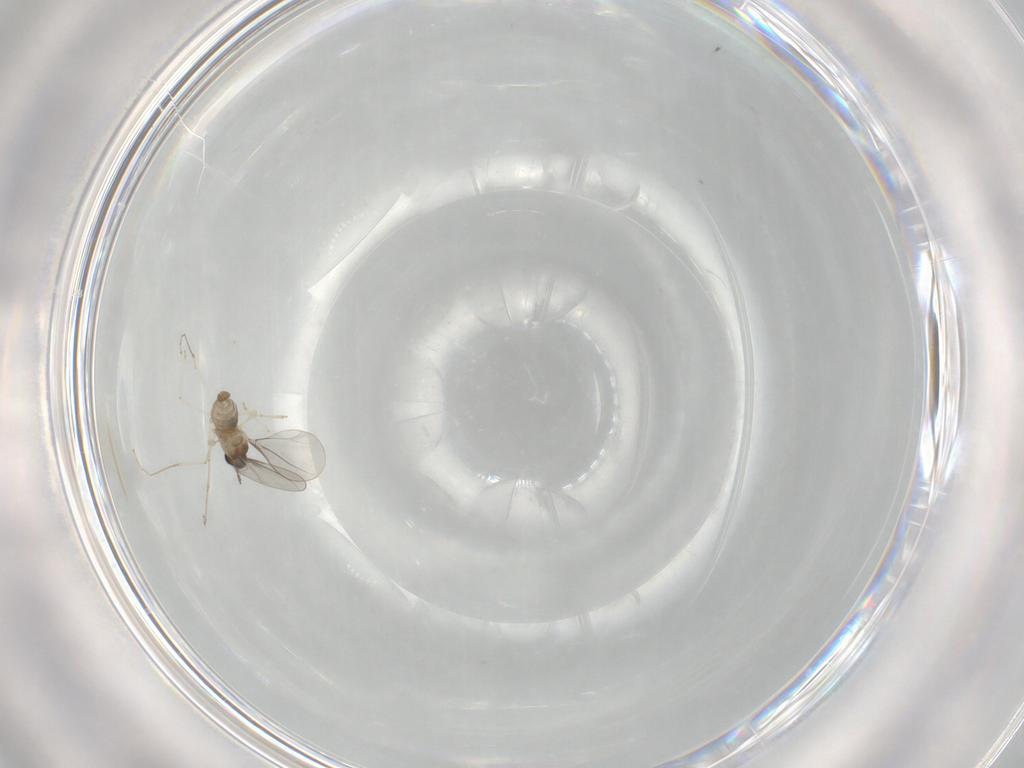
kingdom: Animalia
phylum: Arthropoda
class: Insecta
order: Diptera
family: Cecidomyiidae
